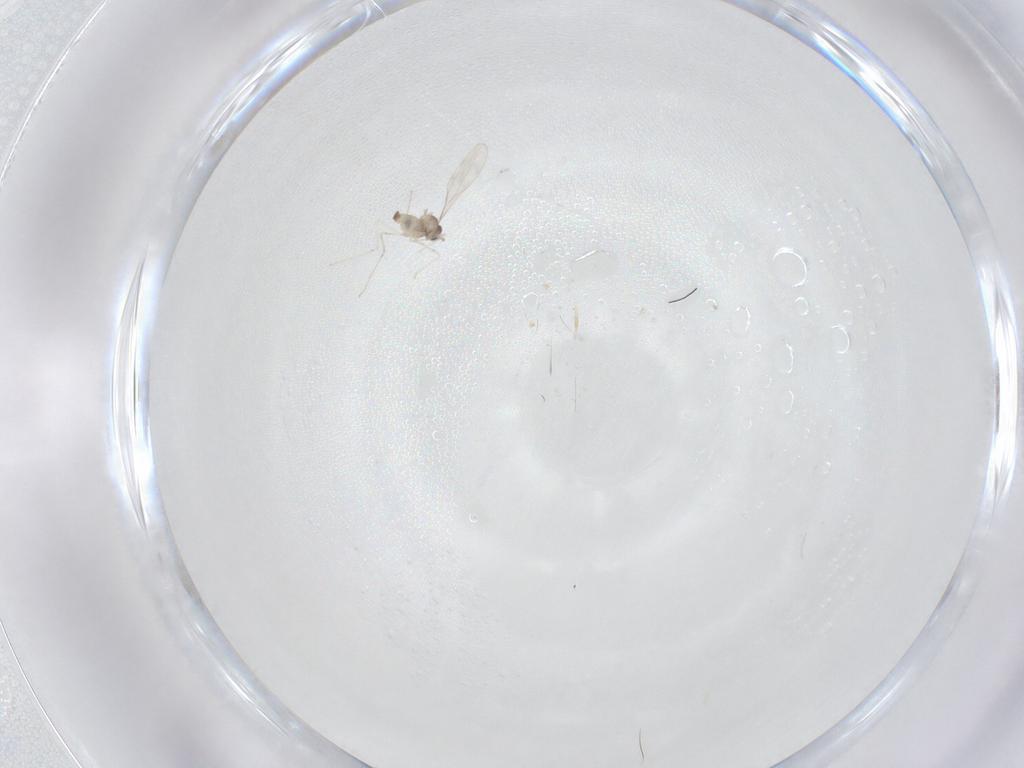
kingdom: Animalia
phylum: Arthropoda
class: Insecta
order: Diptera
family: Cecidomyiidae
